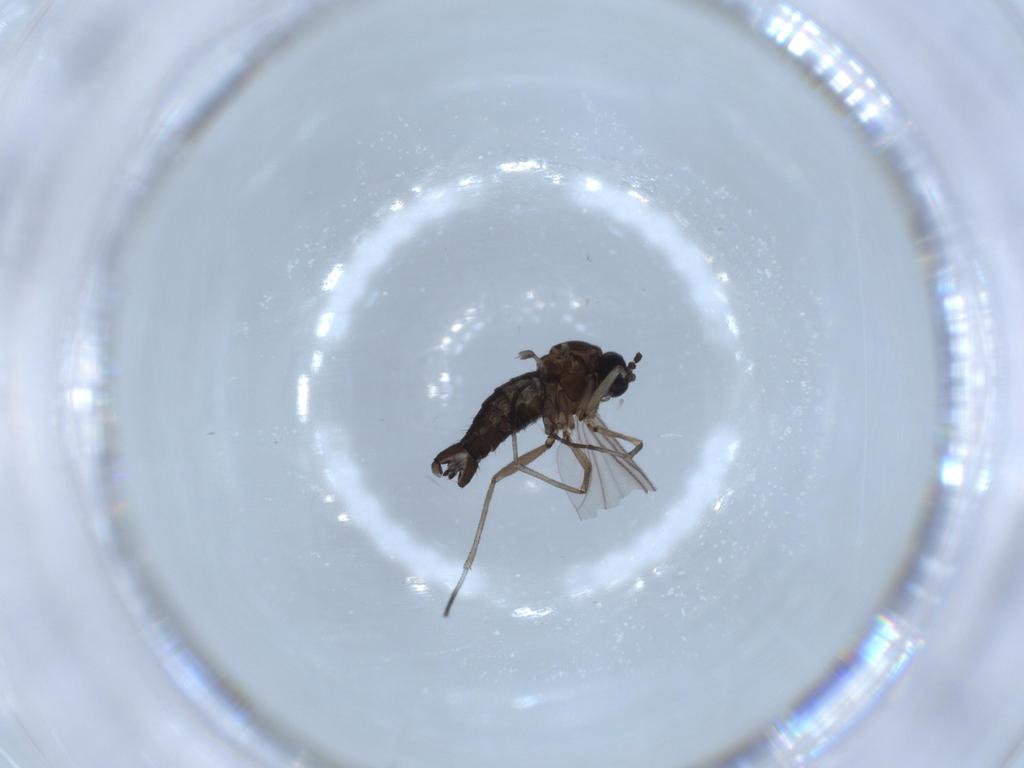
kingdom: Animalia
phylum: Arthropoda
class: Insecta
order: Diptera
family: Sciaridae
